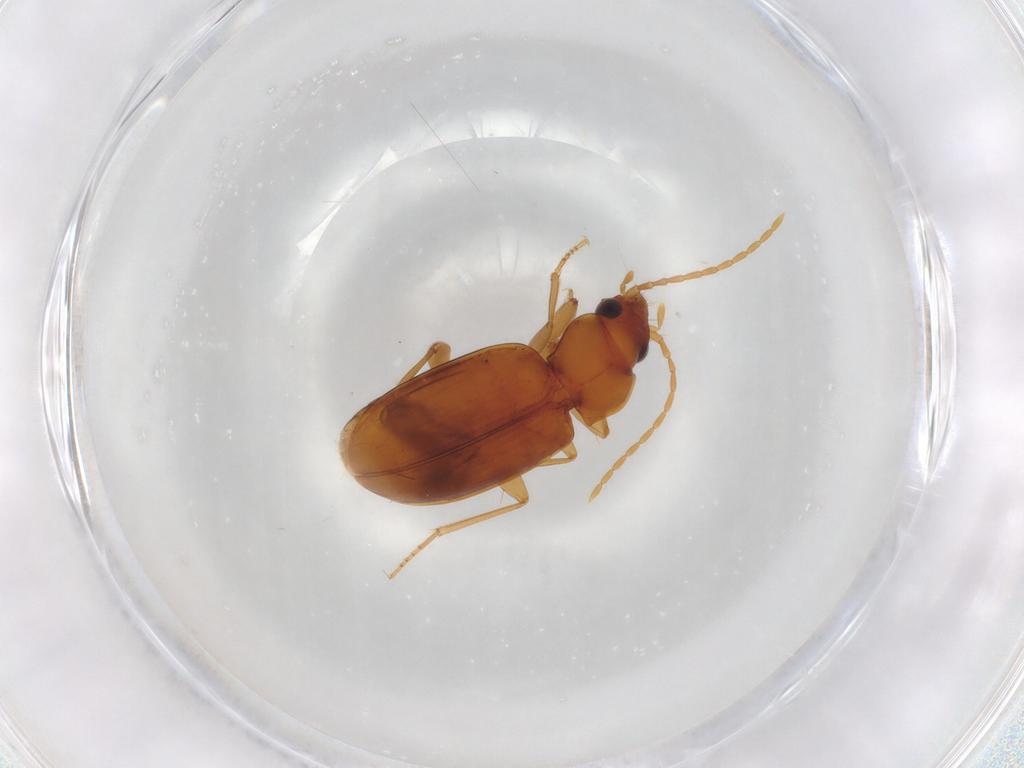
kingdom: Animalia
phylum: Arthropoda
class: Insecta
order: Coleoptera
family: Carabidae
